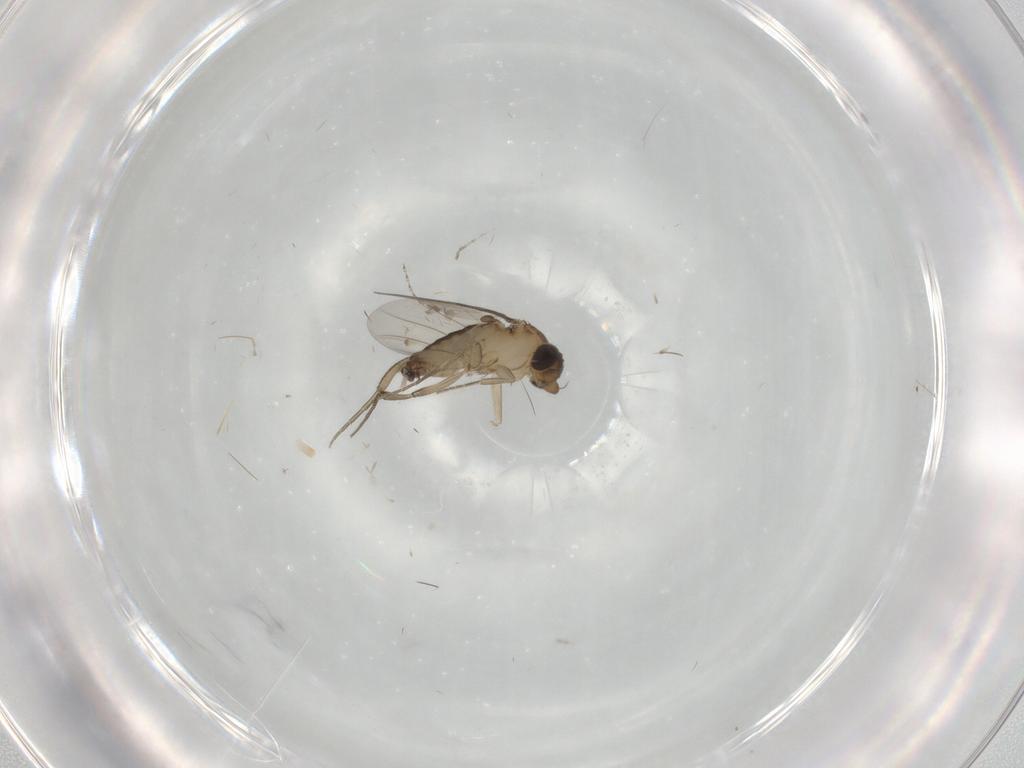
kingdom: Animalia
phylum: Arthropoda
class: Insecta
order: Diptera
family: Phoridae
